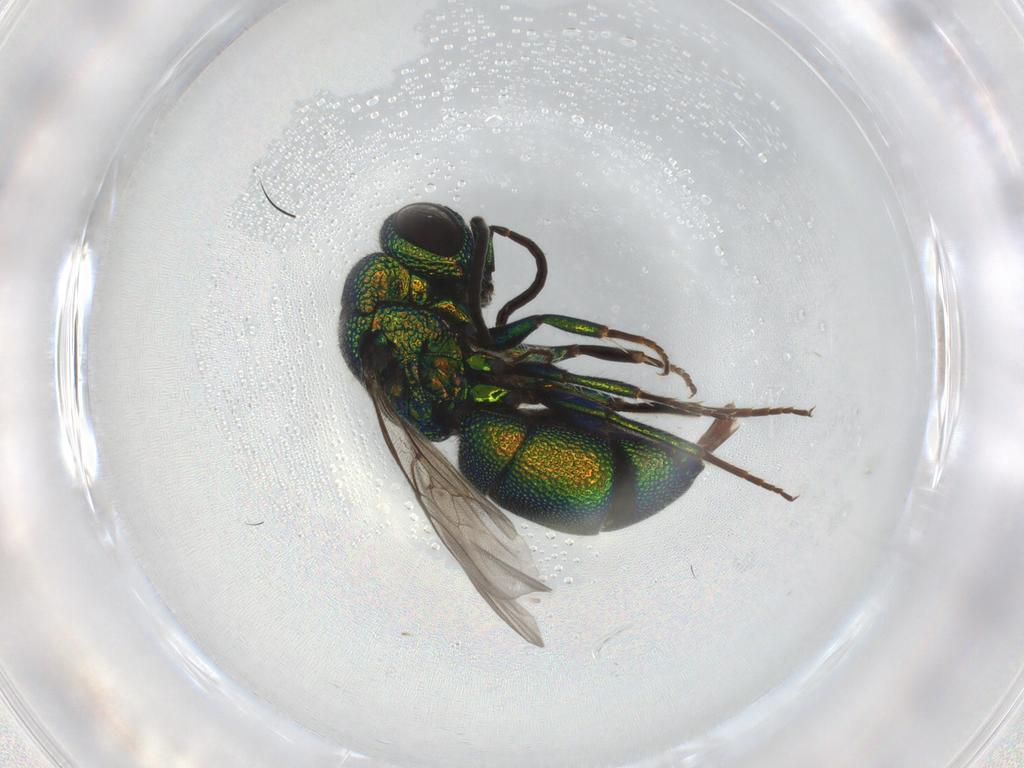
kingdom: Animalia
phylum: Arthropoda
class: Insecta
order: Hymenoptera
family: Chrysididae
